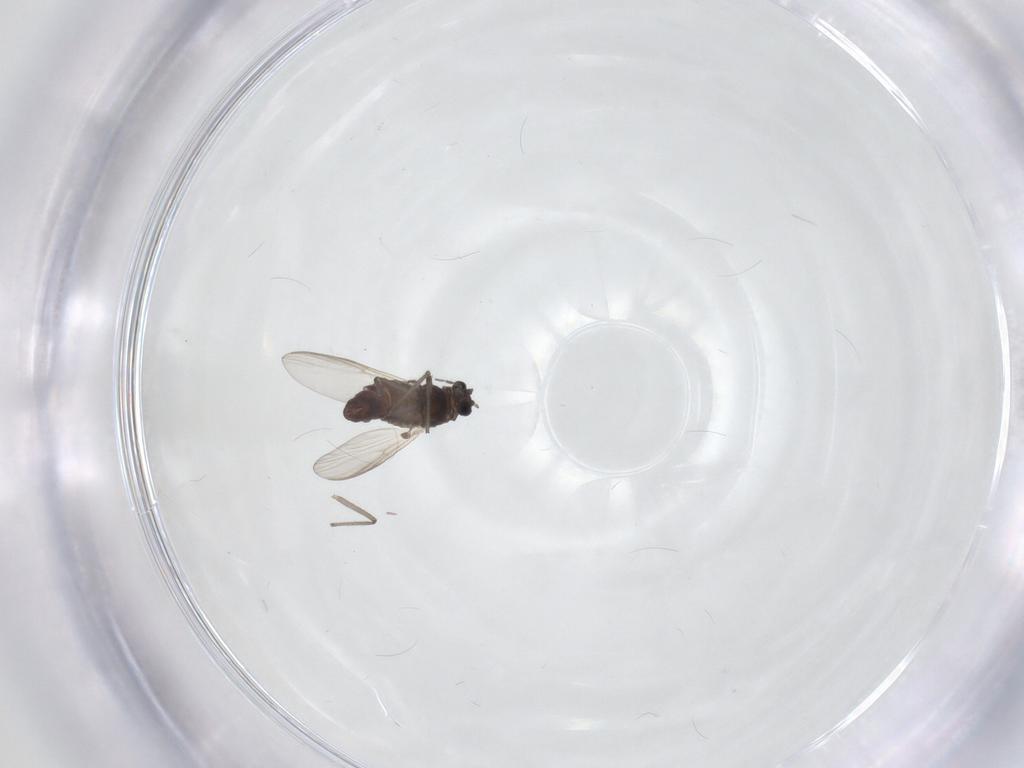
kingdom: Animalia
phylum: Arthropoda
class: Insecta
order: Diptera
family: Chironomidae
